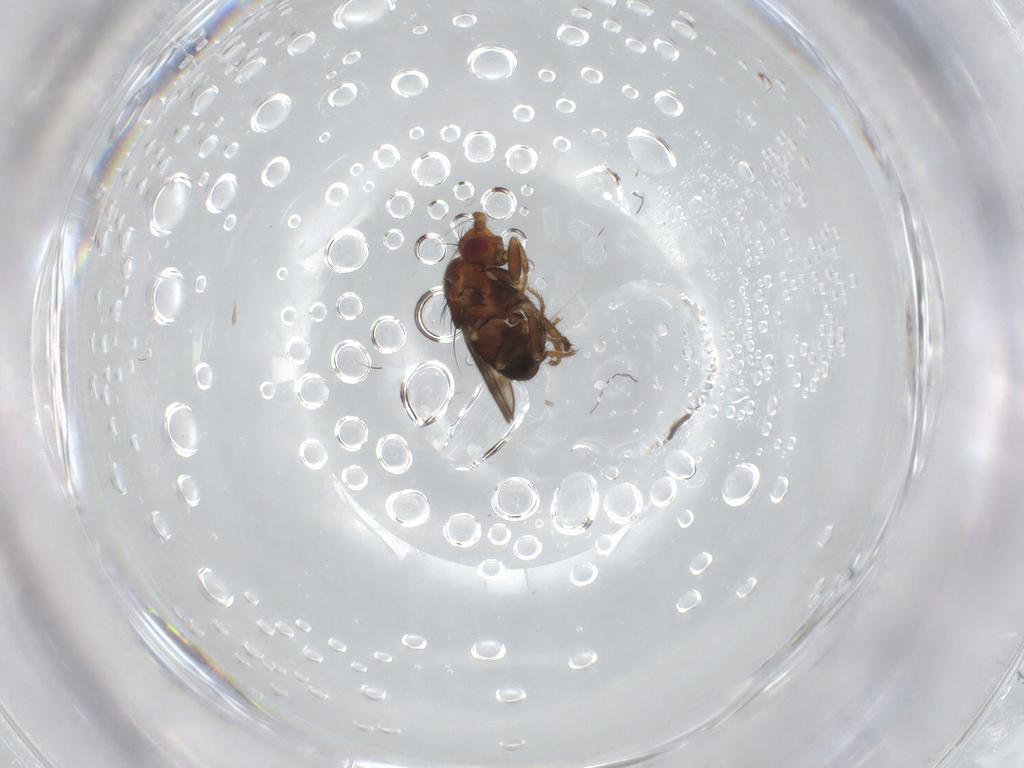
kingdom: Animalia
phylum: Arthropoda
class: Insecta
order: Diptera
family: Sphaeroceridae
